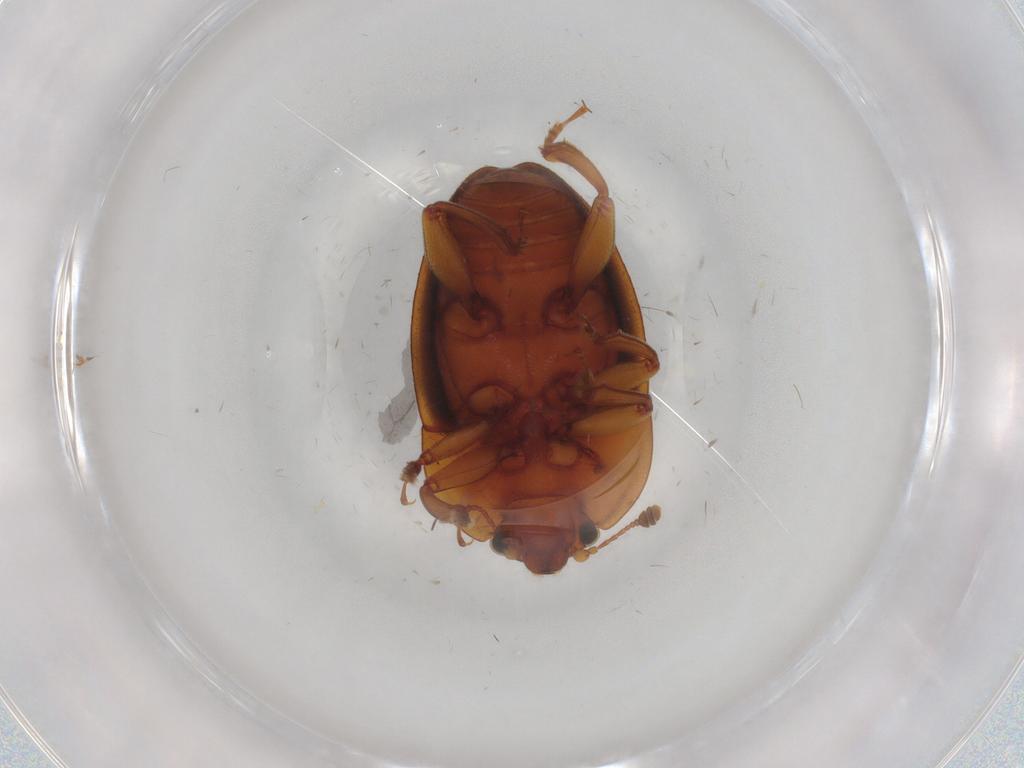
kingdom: Animalia
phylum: Arthropoda
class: Insecta
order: Coleoptera
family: Nitidulidae
